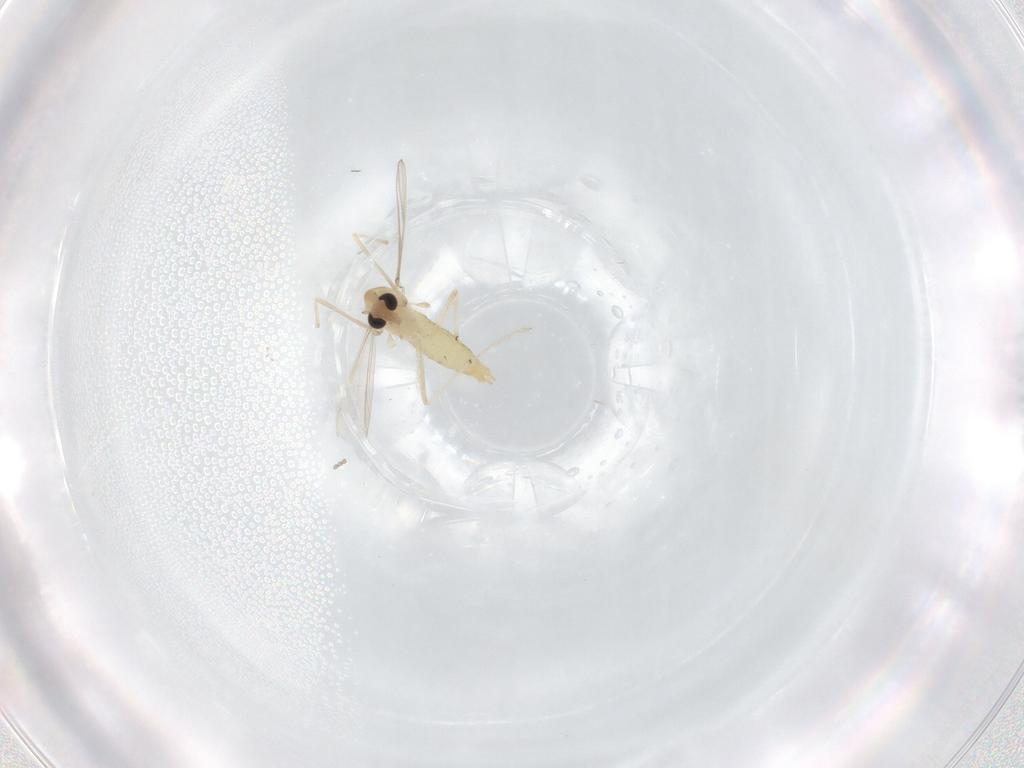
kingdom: Animalia
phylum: Arthropoda
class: Insecta
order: Diptera
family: Chironomidae
